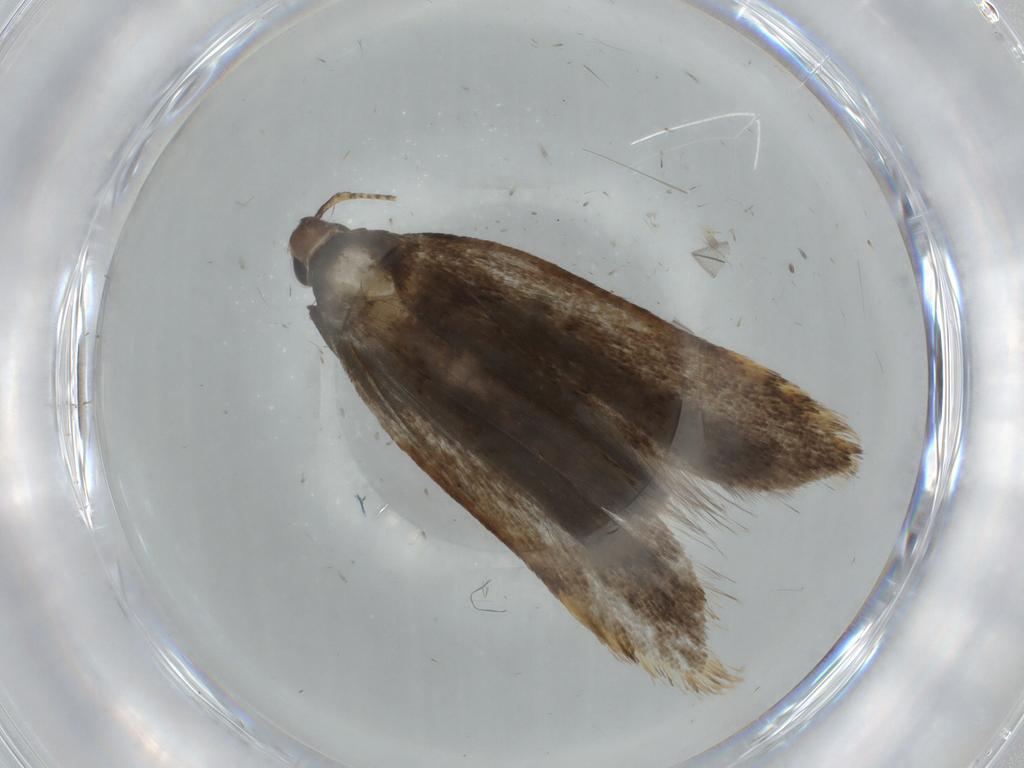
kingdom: Animalia
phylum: Arthropoda
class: Insecta
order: Lepidoptera
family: Gelechiidae
